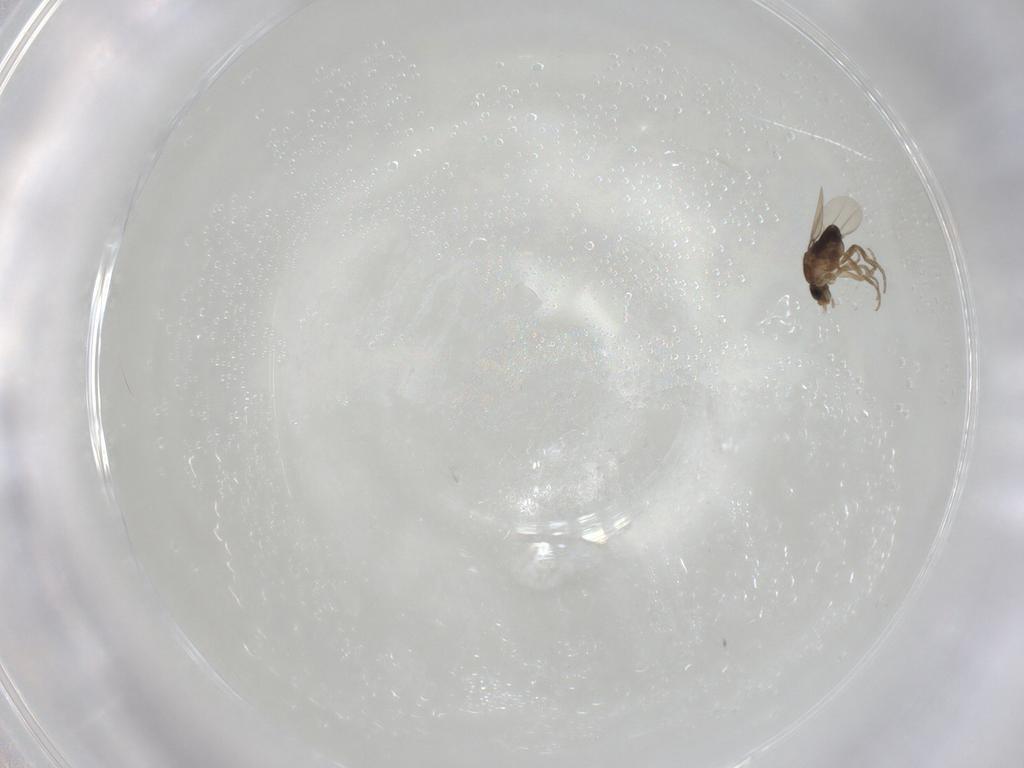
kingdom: Animalia
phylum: Arthropoda
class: Insecta
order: Diptera
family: Phoridae
